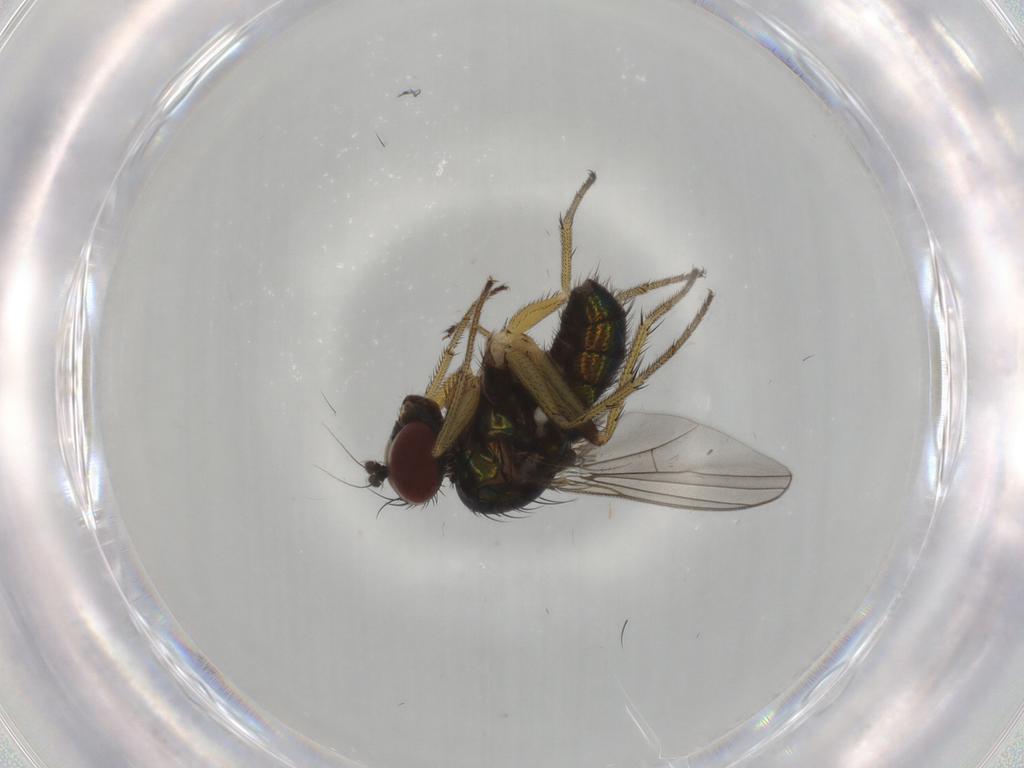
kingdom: Animalia
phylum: Arthropoda
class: Insecta
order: Diptera
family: Dolichopodidae
